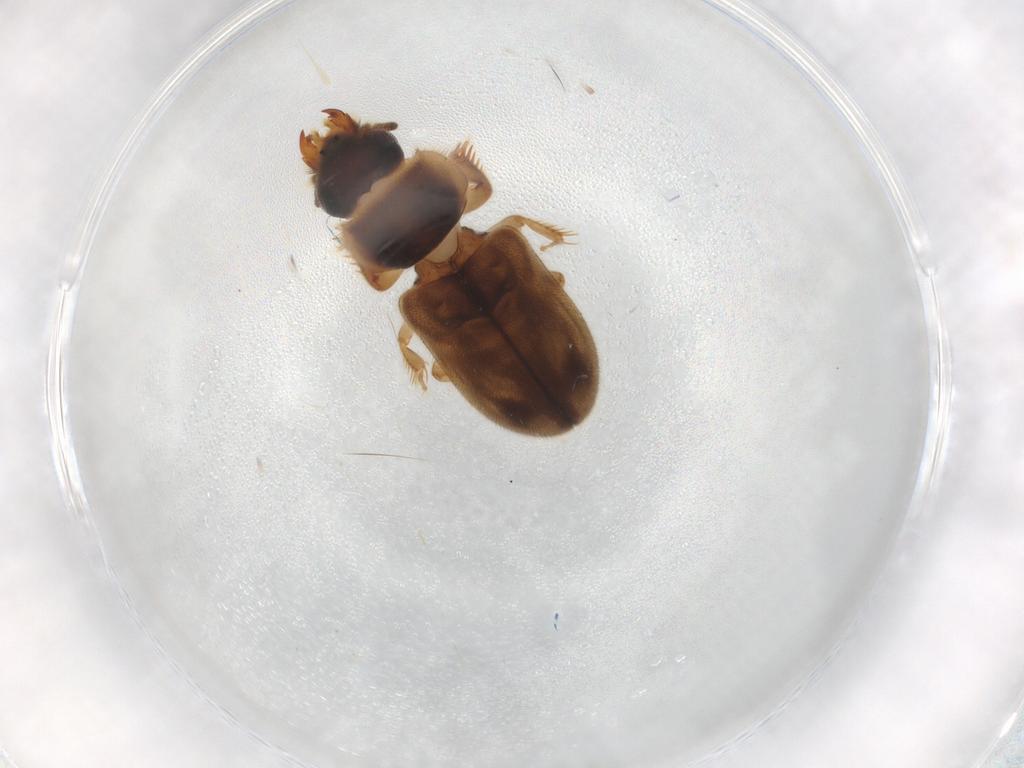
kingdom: Animalia
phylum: Arthropoda
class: Insecta
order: Coleoptera
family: Heteroceridae
